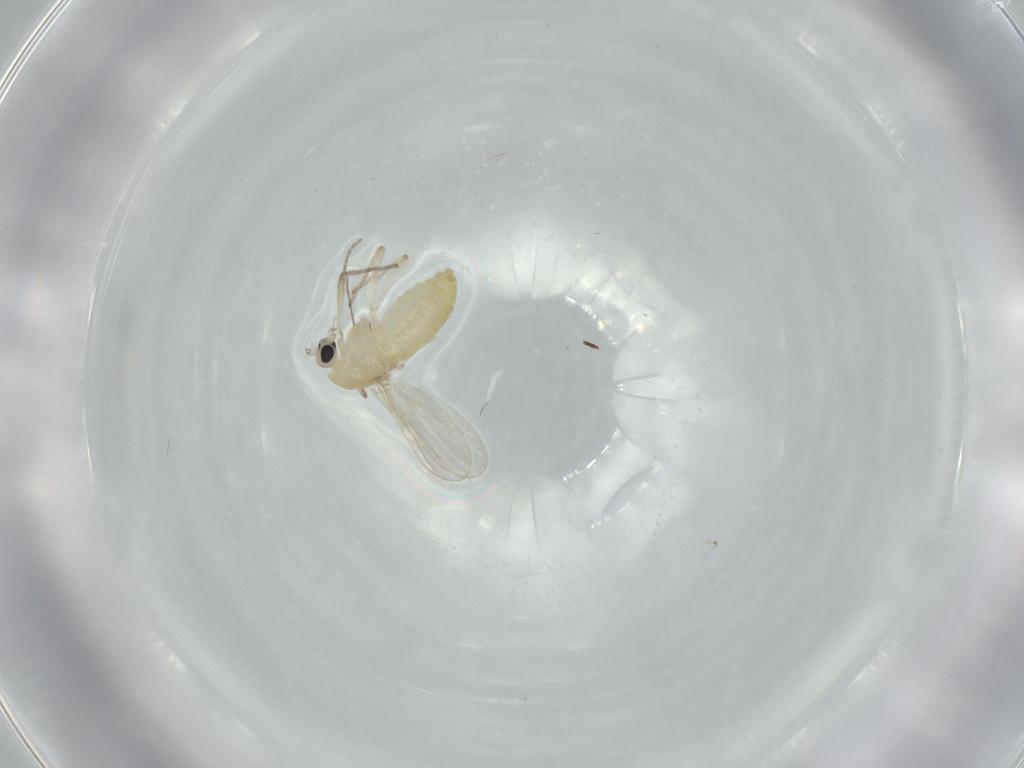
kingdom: Animalia
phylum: Arthropoda
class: Insecta
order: Diptera
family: Chironomidae
